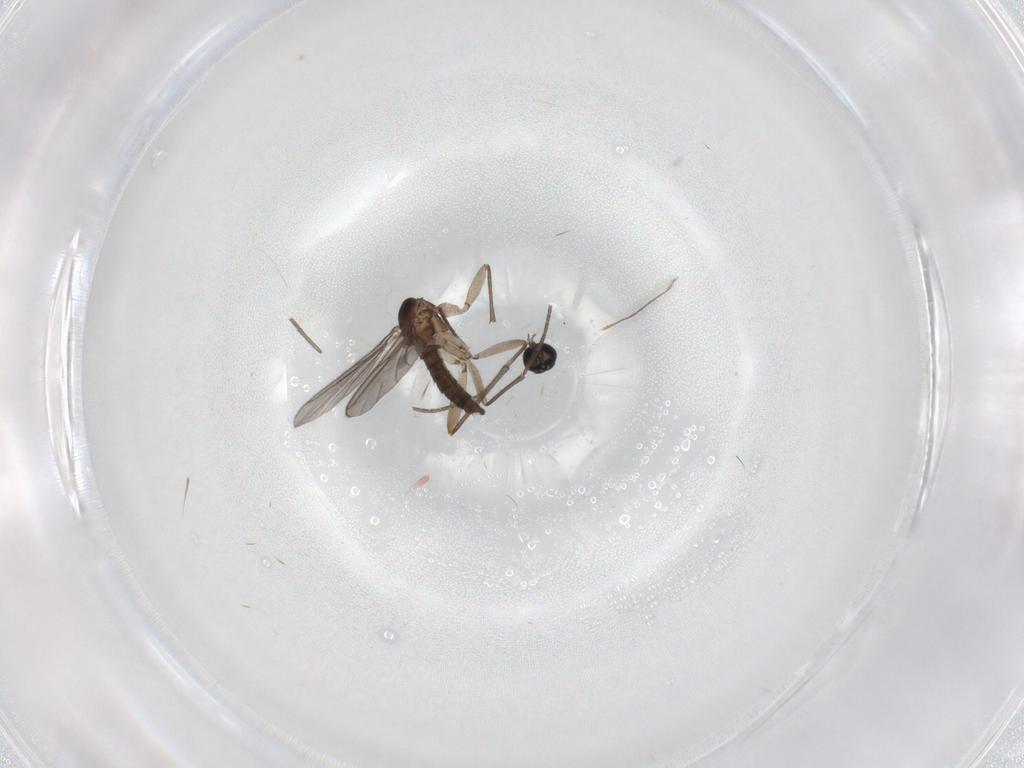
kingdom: Animalia
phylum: Arthropoda
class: Insecta
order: Diptera
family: Sciaridae
